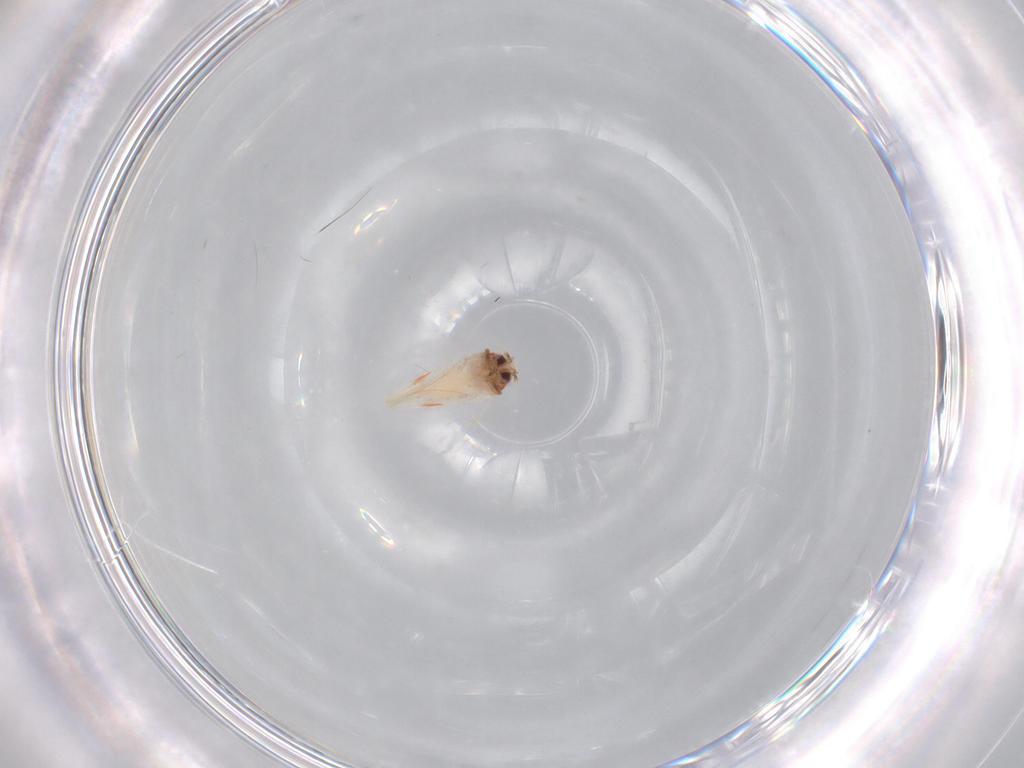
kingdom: Animalia
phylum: Arthropoda
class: Insecta
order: Hemiptera
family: Aleyrodidae
